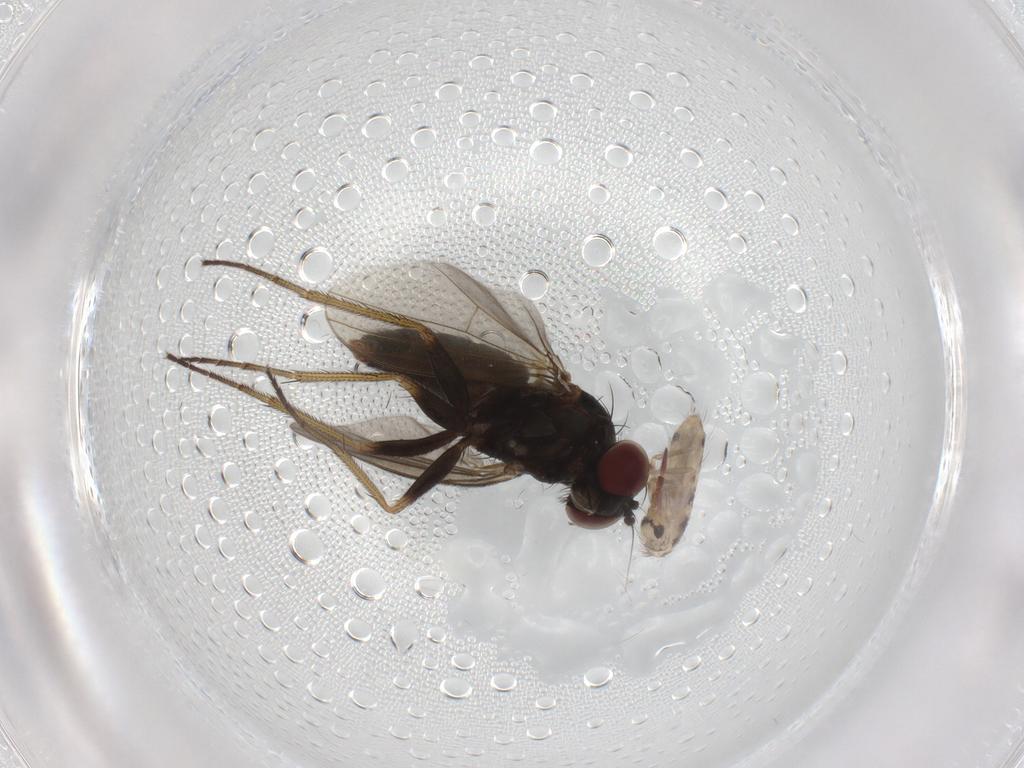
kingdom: Animalia
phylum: Arthropoda
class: Insecta
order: Diptera
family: Dolichopodidae
